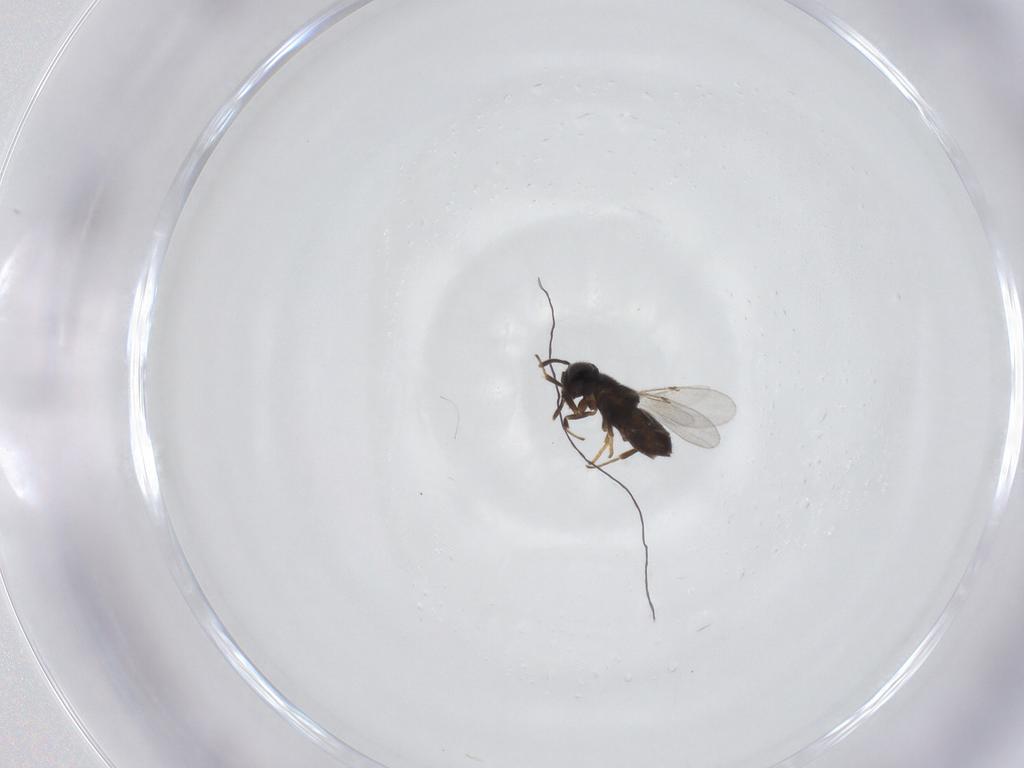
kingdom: Animalia
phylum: Arthropoda
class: Insecta
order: Hymenoptera
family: Encyrtidae
